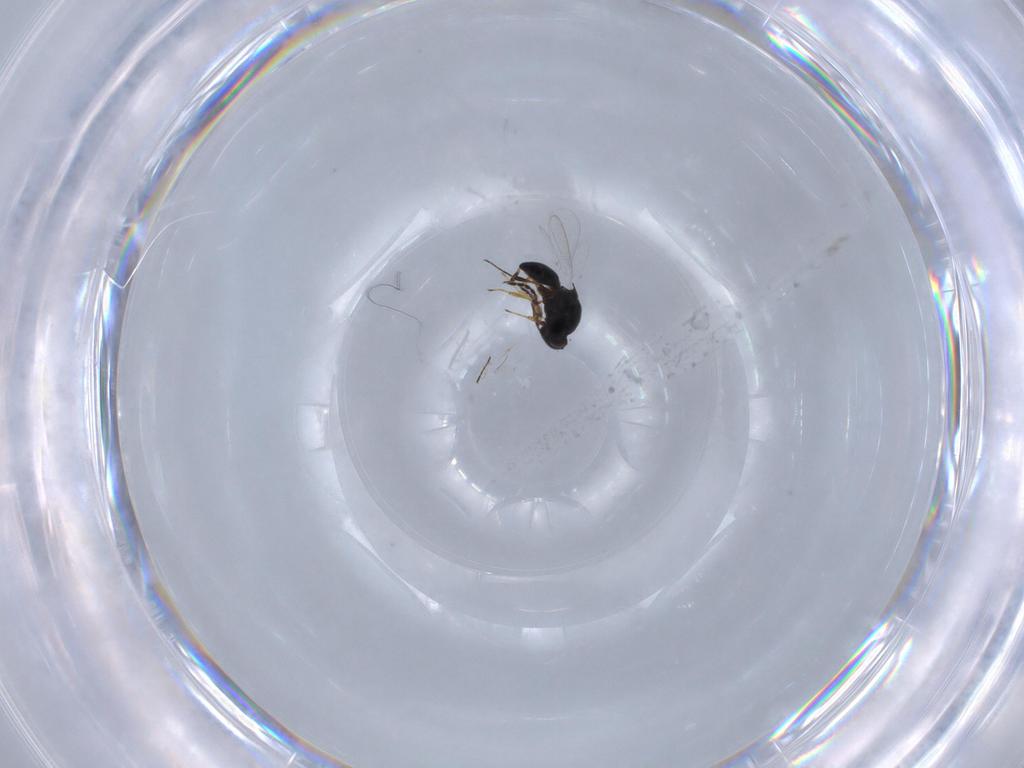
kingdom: Animalia
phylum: Arthropoda
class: Insecta
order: Hymenoptera
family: Platygastridae
